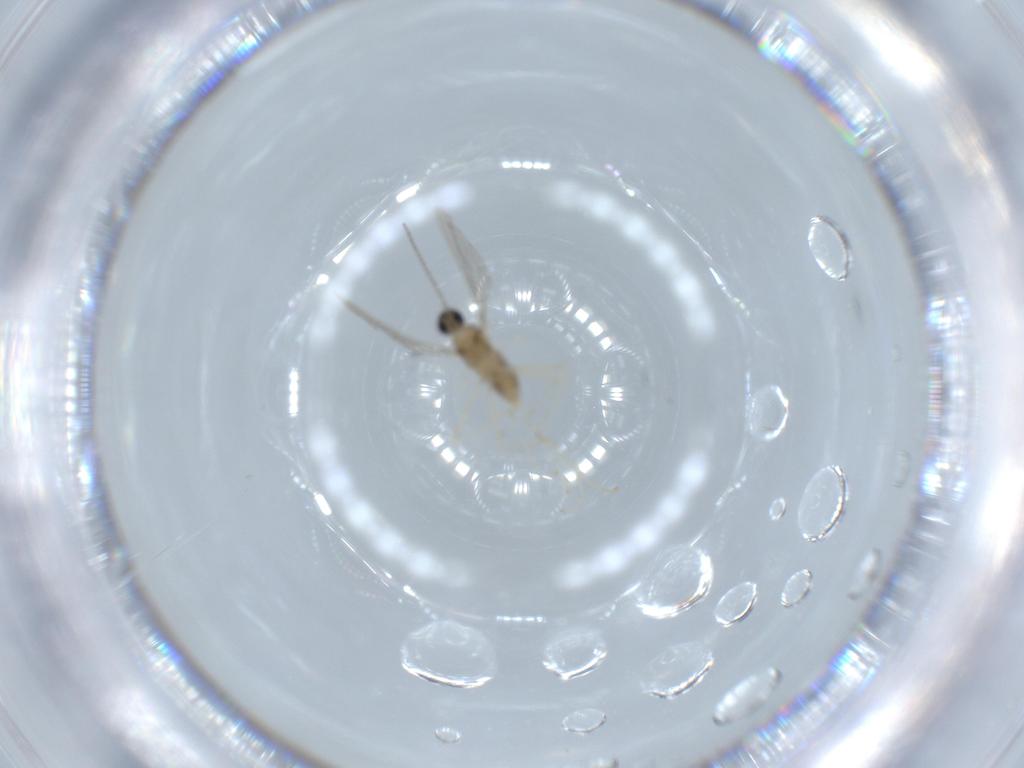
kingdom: Animalia
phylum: Arthropoda
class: Insecta
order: Diptera
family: Cecidomyiidae
